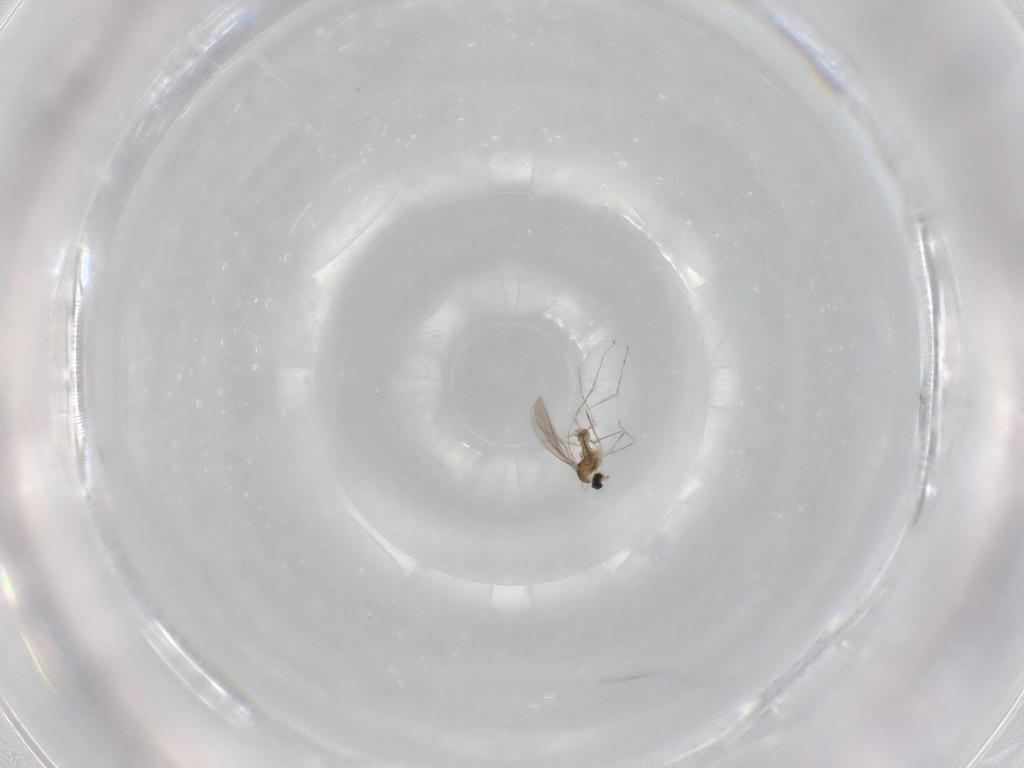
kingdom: Animalia
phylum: Arthropoda
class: Insecta
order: Diptera
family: Cecidomyiidae
